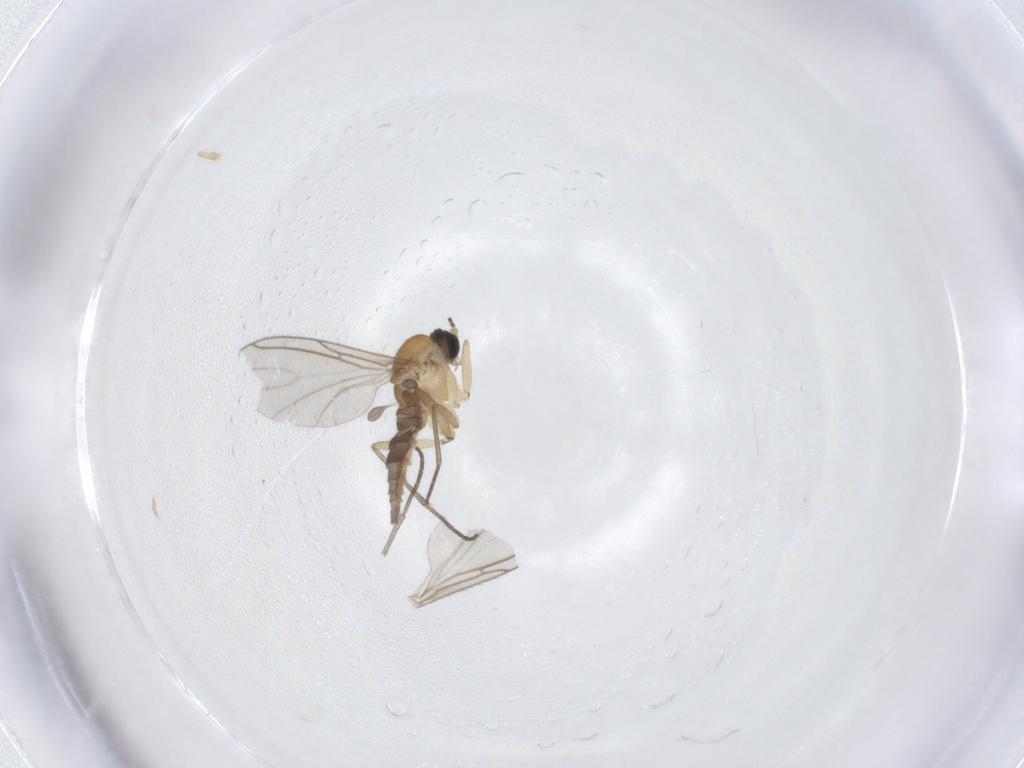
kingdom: Animalia
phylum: Arthropoda
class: Insecta
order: Diptera
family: Sciaridae
